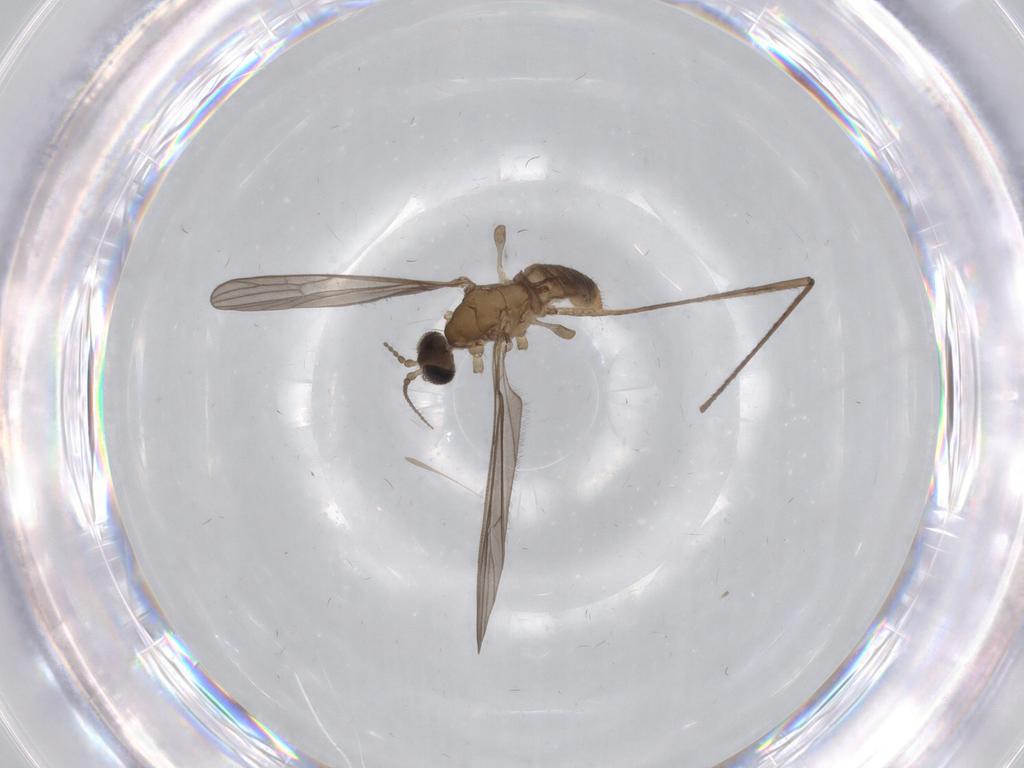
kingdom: Animalia
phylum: Arthropoda
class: Insecta
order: Diptera
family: Limoniidae
